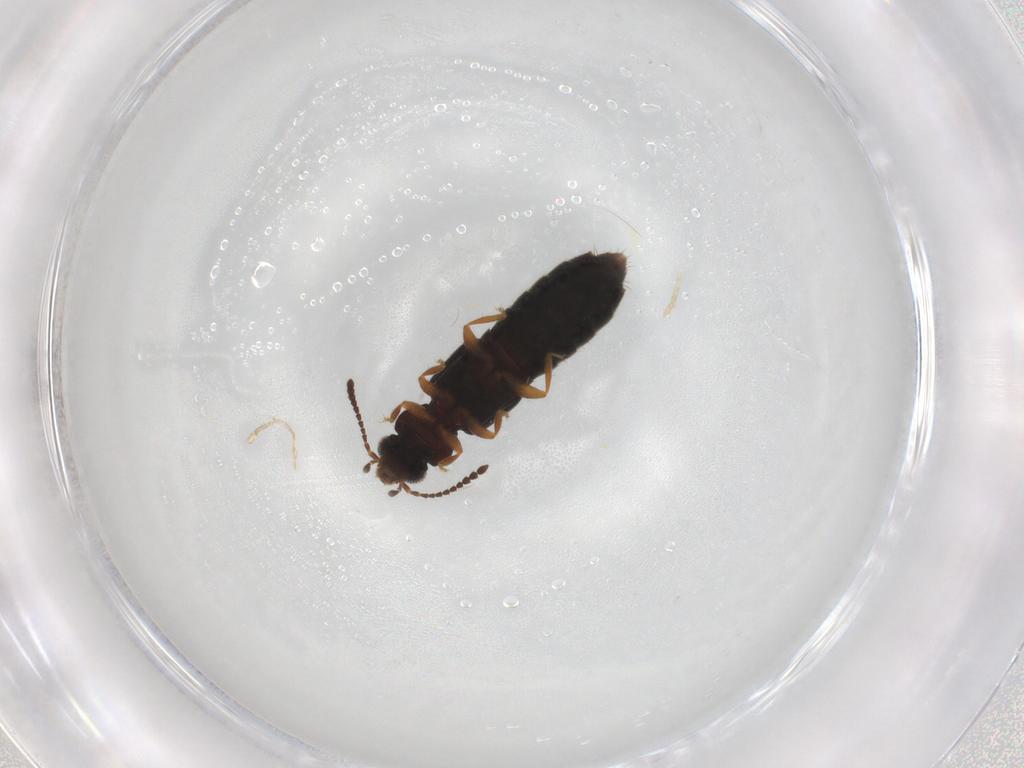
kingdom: Animalia
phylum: Arthropoda
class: Insecta
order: Coleoptera
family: Staphylinidae
